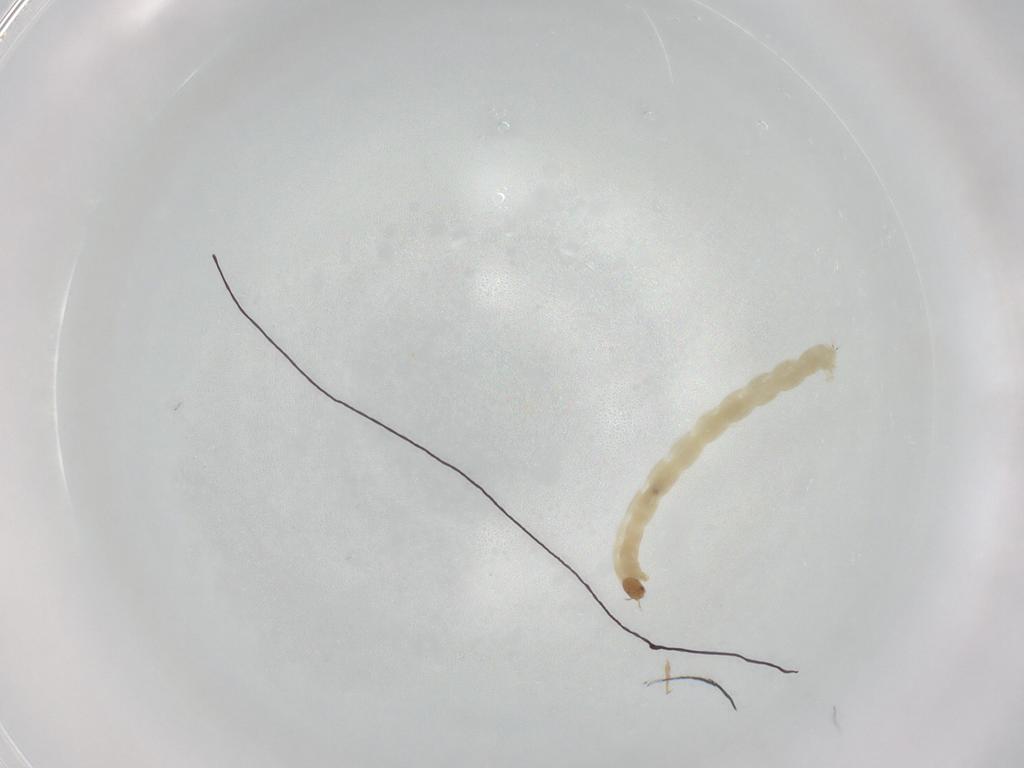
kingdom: Animalia
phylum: Arthropoda
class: Insecta
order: Diptera
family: Chironomidae
